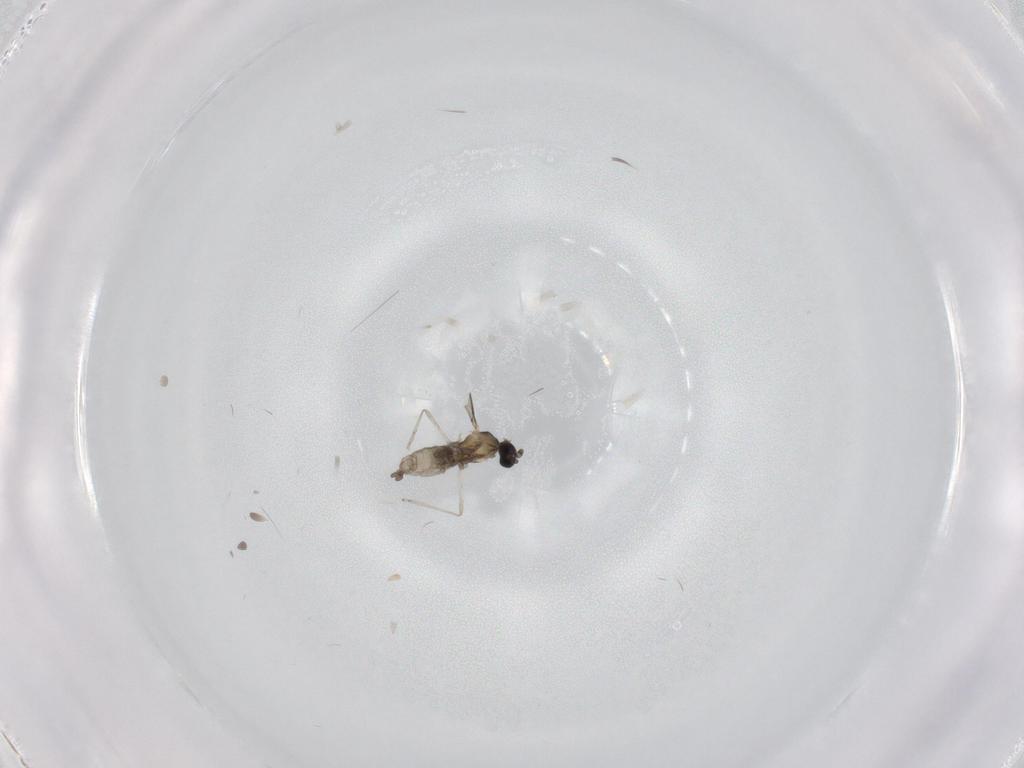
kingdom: Animalia
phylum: Arthropoda
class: Insecta
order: Diptera
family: Cecidomyiidae
